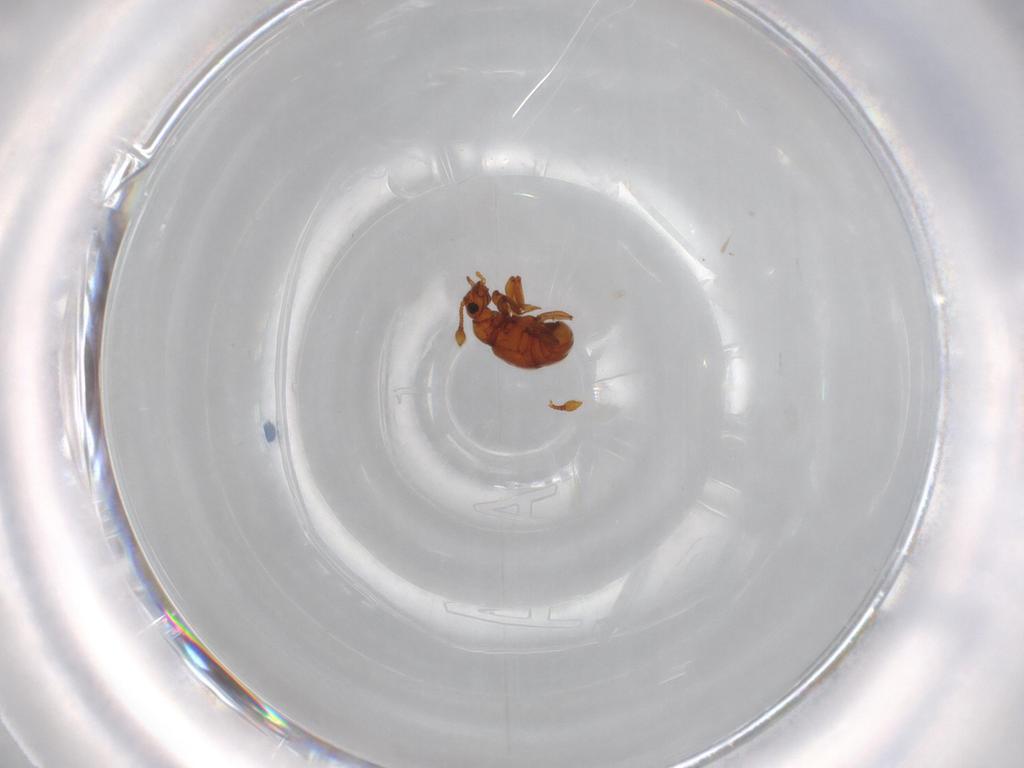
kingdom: Animalia
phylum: Arthropoda
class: Insecta
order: Coleoptera
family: Staphylinidae
